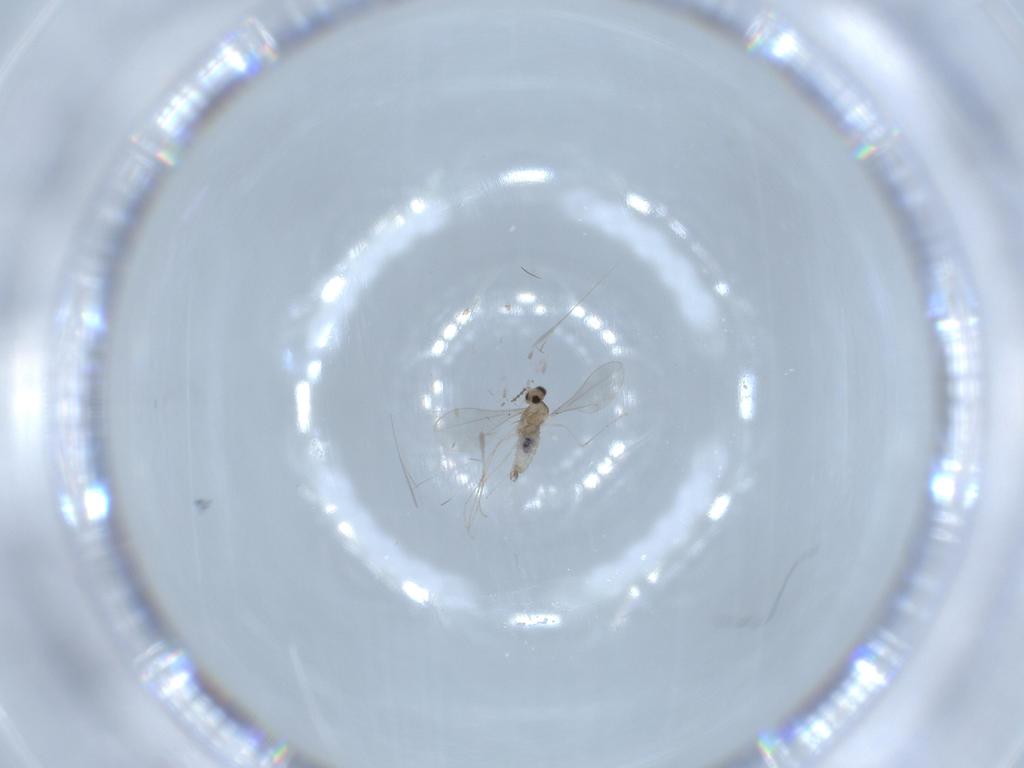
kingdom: Animalia
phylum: Arthropoda
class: Insecta
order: Diptera
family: Cecidomyiidae
